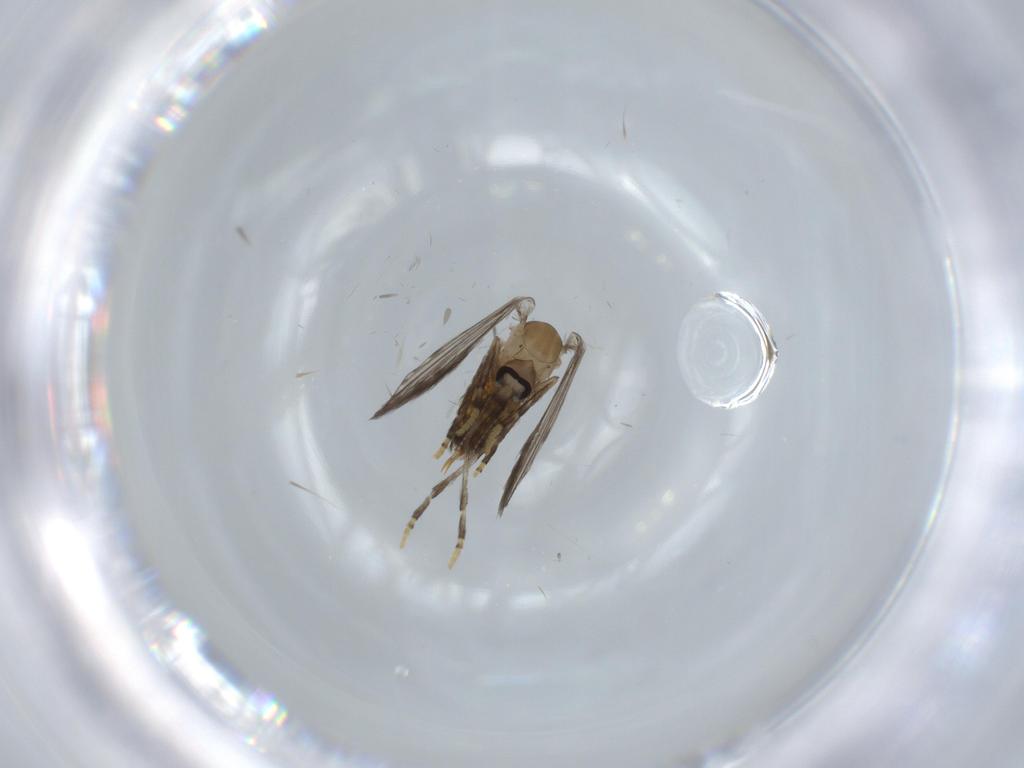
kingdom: Animalia
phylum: Arthropoda
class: Insecta
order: Diptera
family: Psychodidae
